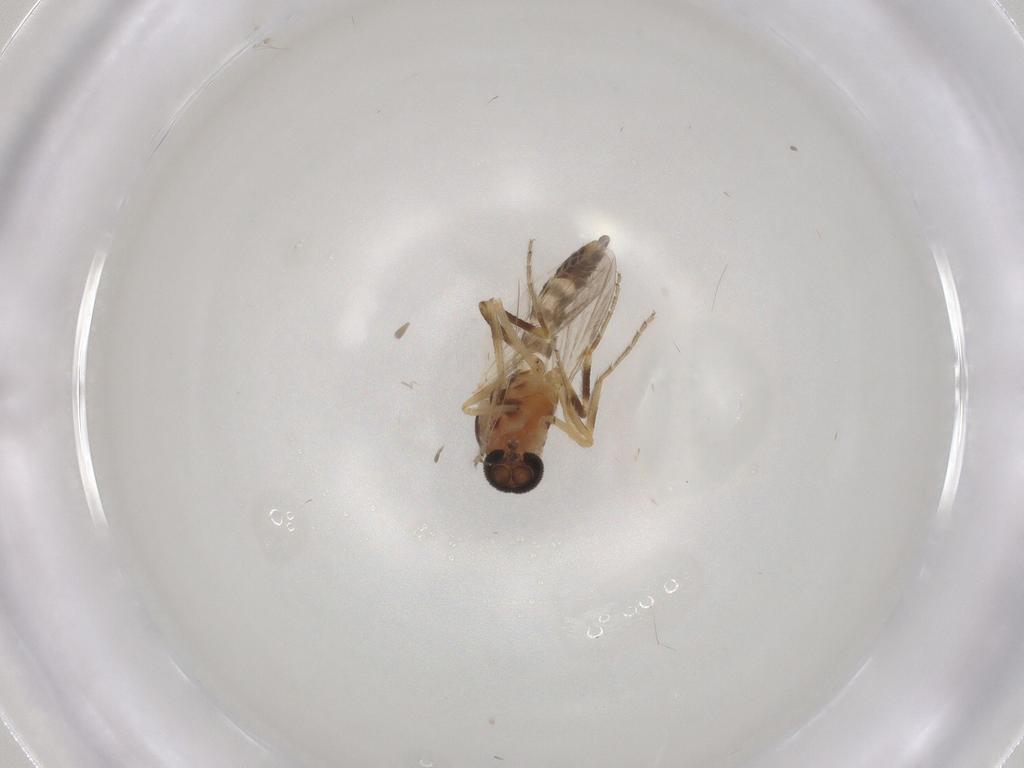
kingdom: Animalia
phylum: Arthropoda
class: Insecta
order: Diptera
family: Ceratopogonidae
